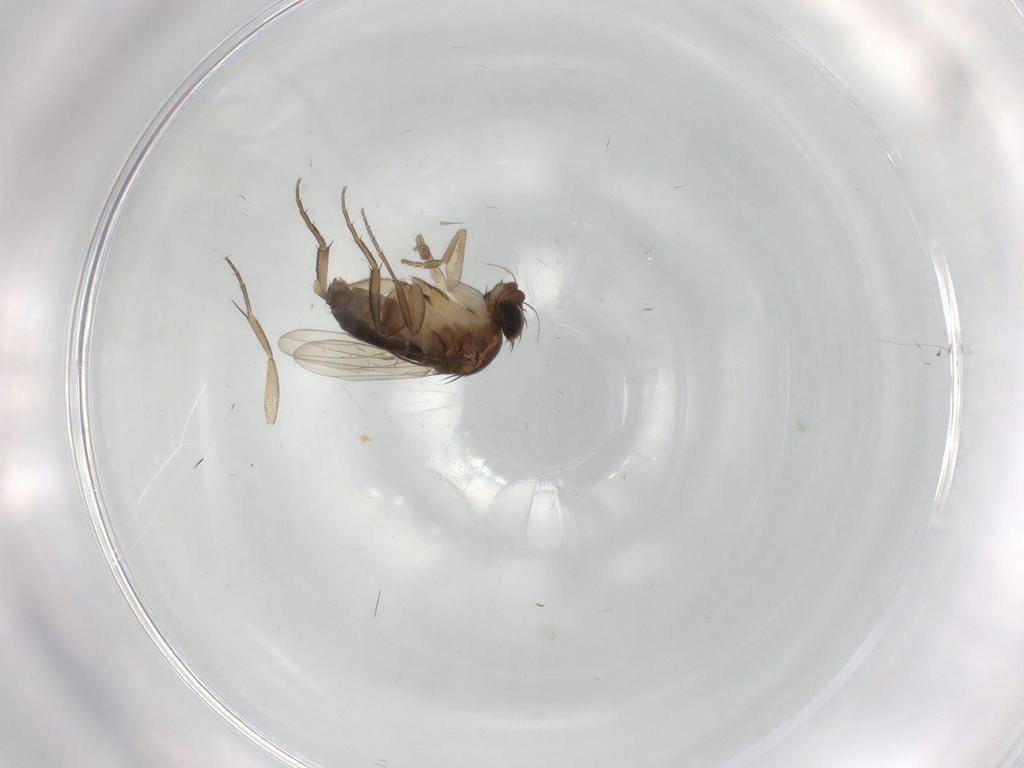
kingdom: Animalia
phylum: Arthropoda
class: Insecta
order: Diptera
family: Phoridae
